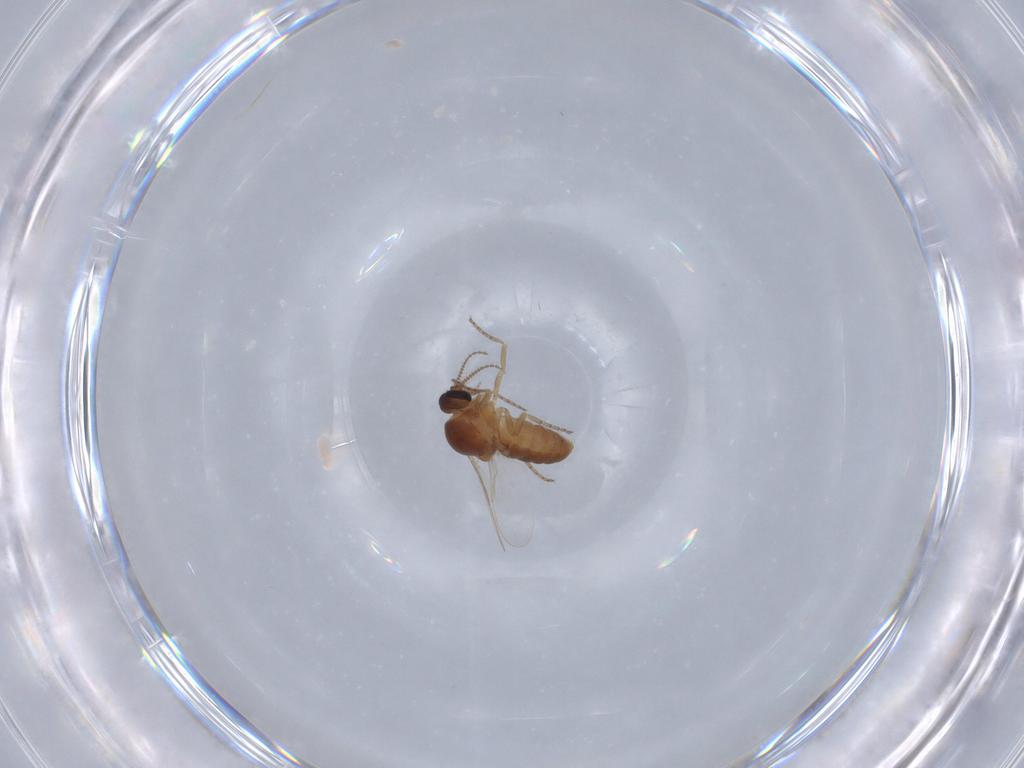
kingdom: Animalia
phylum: Arthropoda
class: Insecta
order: Diptera
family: Ceratopogonidae
